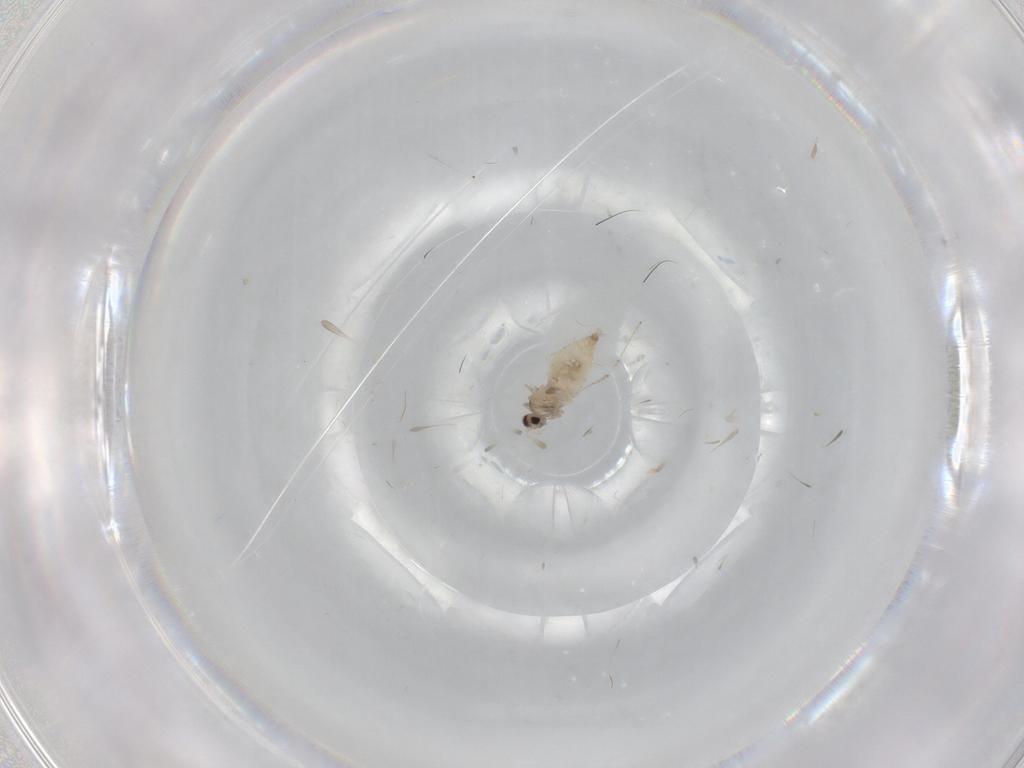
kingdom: Animalia
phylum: Arthropoda
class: Insecta
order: Diptera
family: Cecidomyiidae
